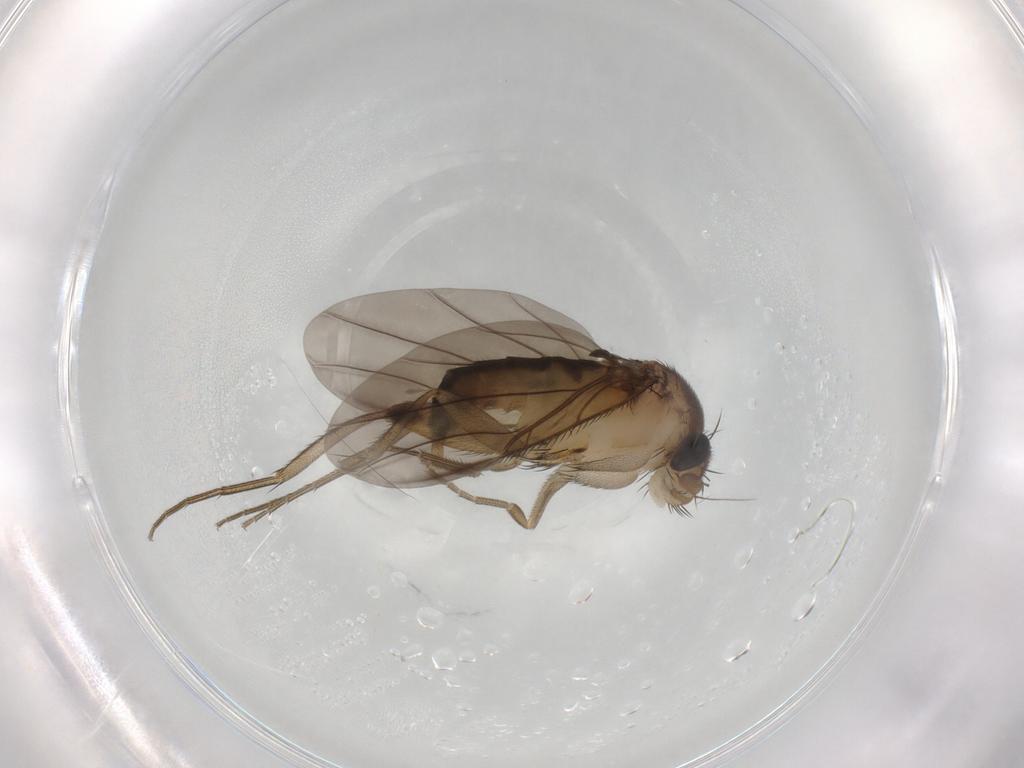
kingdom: Animalia
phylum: Arthropoda
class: Insecta
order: Diptera
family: Phoridae
